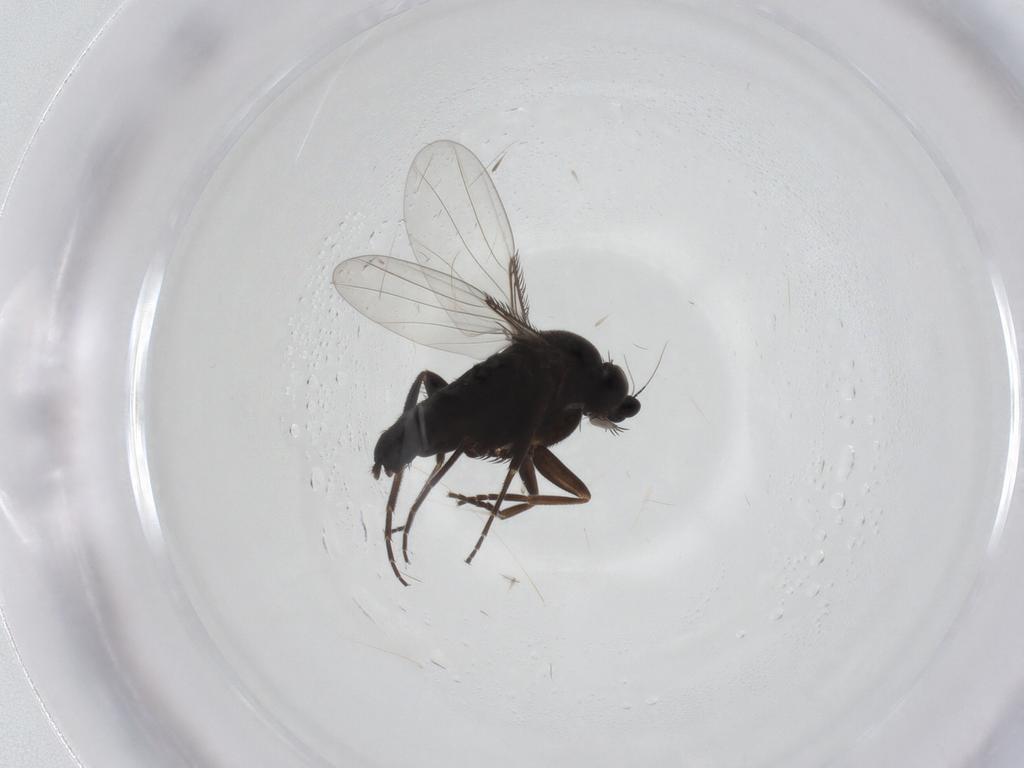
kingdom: Animalia
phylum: Arthropoda
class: Insecta
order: Diptera
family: Phoridae
